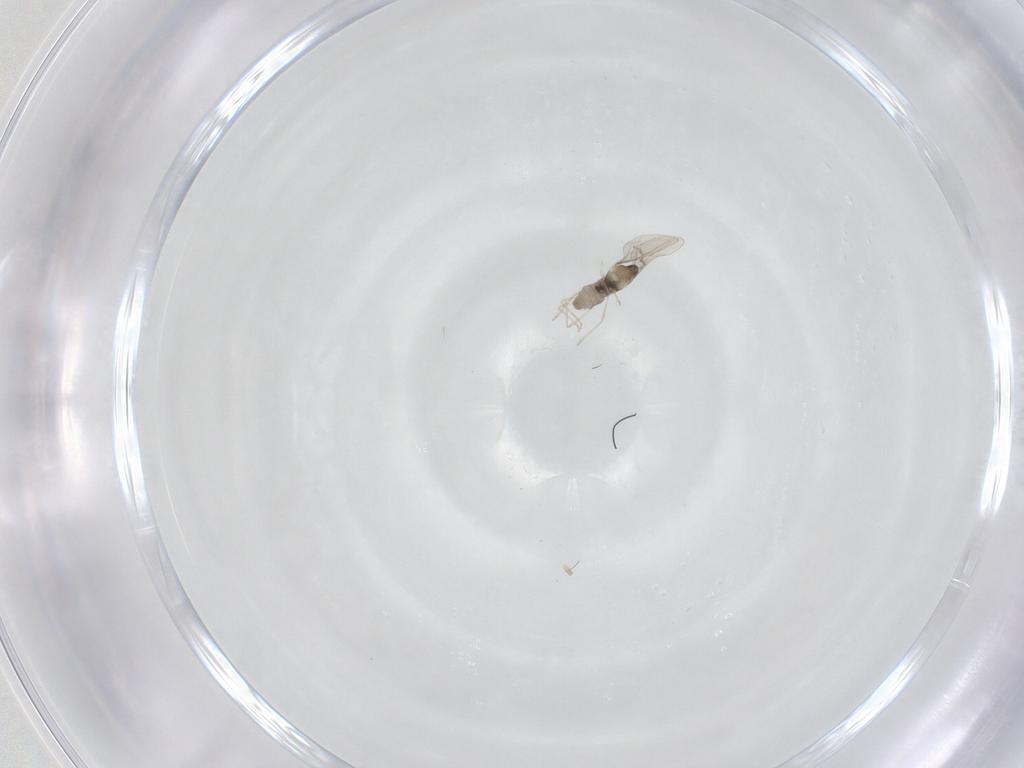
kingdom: Animalia
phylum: Arthropoda
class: Insecta
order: Diptera
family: Cecidomyiidae
